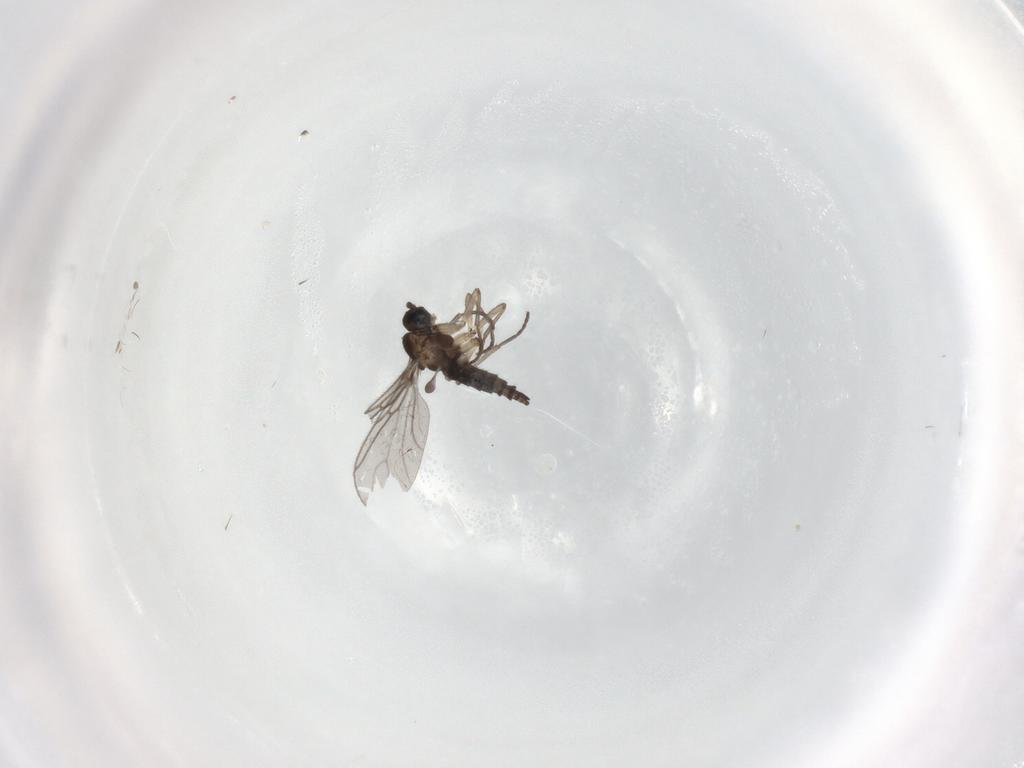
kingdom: Animalia
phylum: Arthropoda
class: Insecta
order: Diptera
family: Sciaridae
